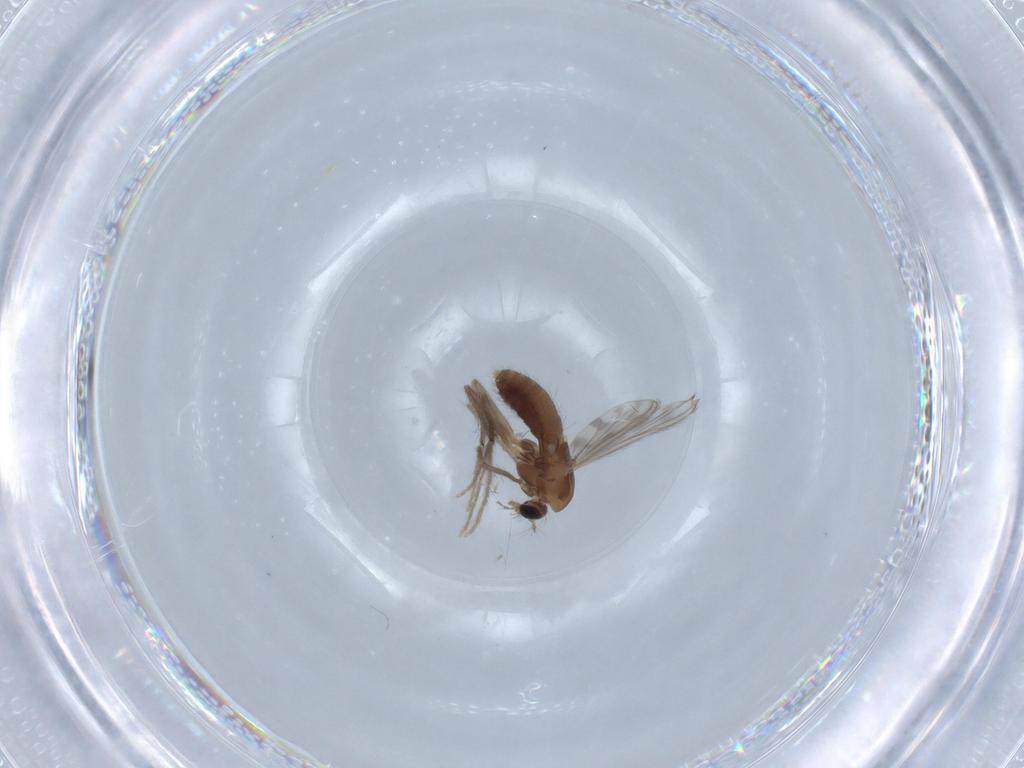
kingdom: Animalia
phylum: Arthropoda
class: Insecta
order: Diptera
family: Chironomidae
